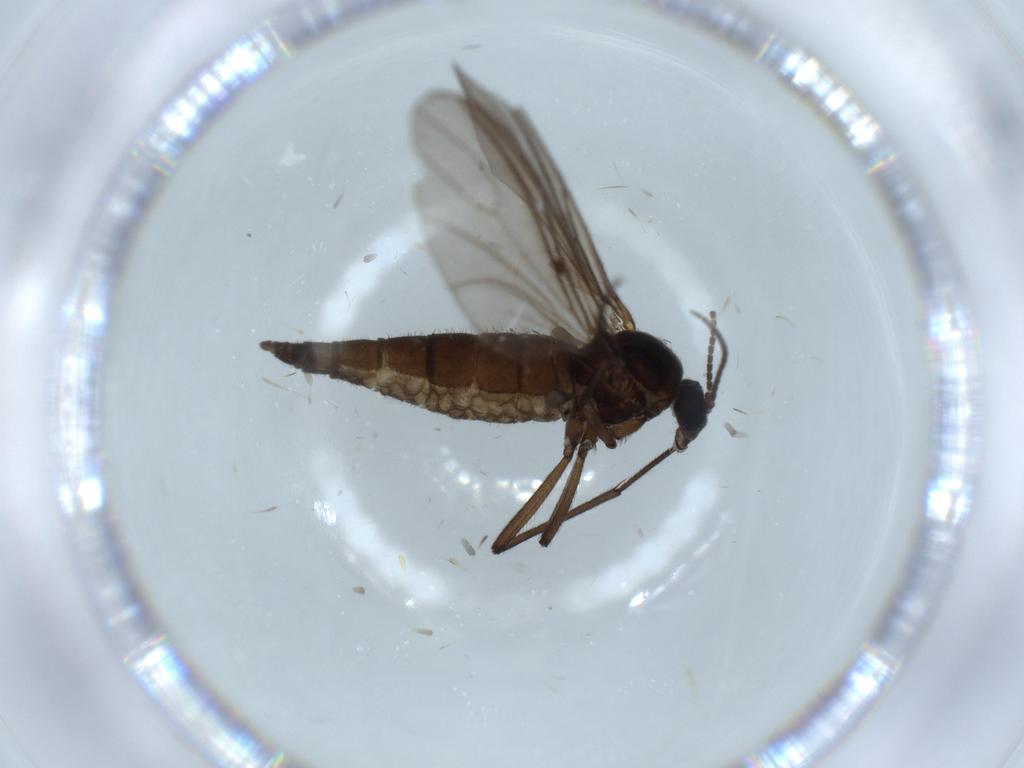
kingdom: Animalia
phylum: Arthropoda
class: Insecta
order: Diptera
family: Sciaridae
